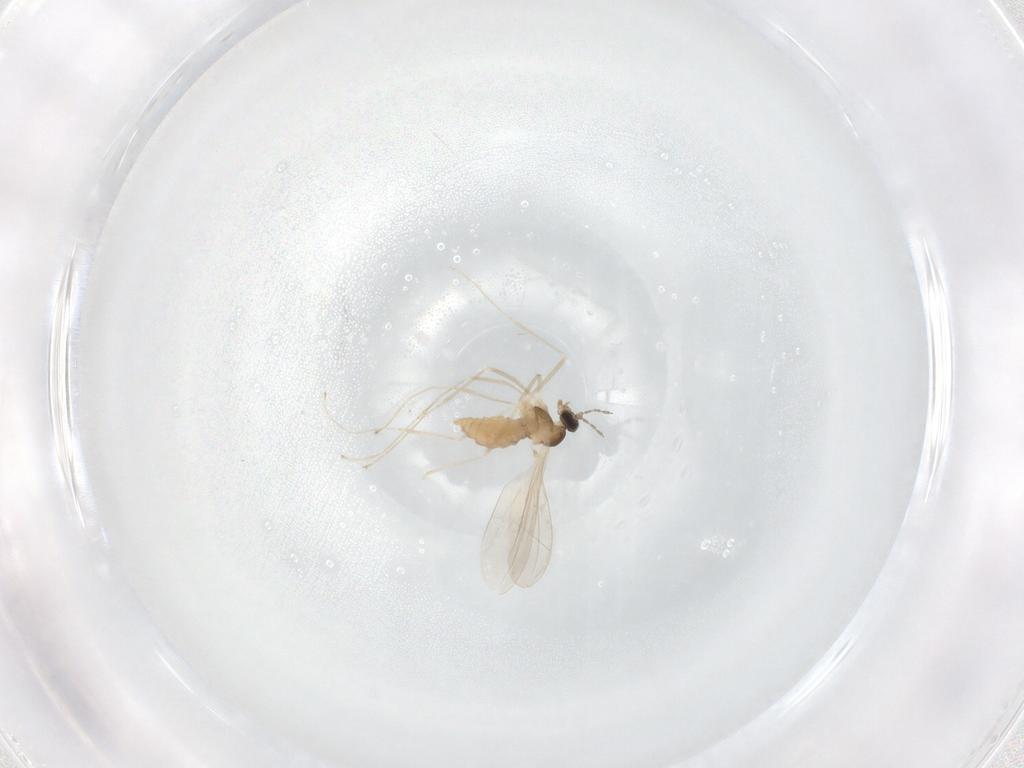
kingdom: Animalia
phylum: Arthropoda
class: Insecta
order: Diptera
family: Cecidomyiidae
